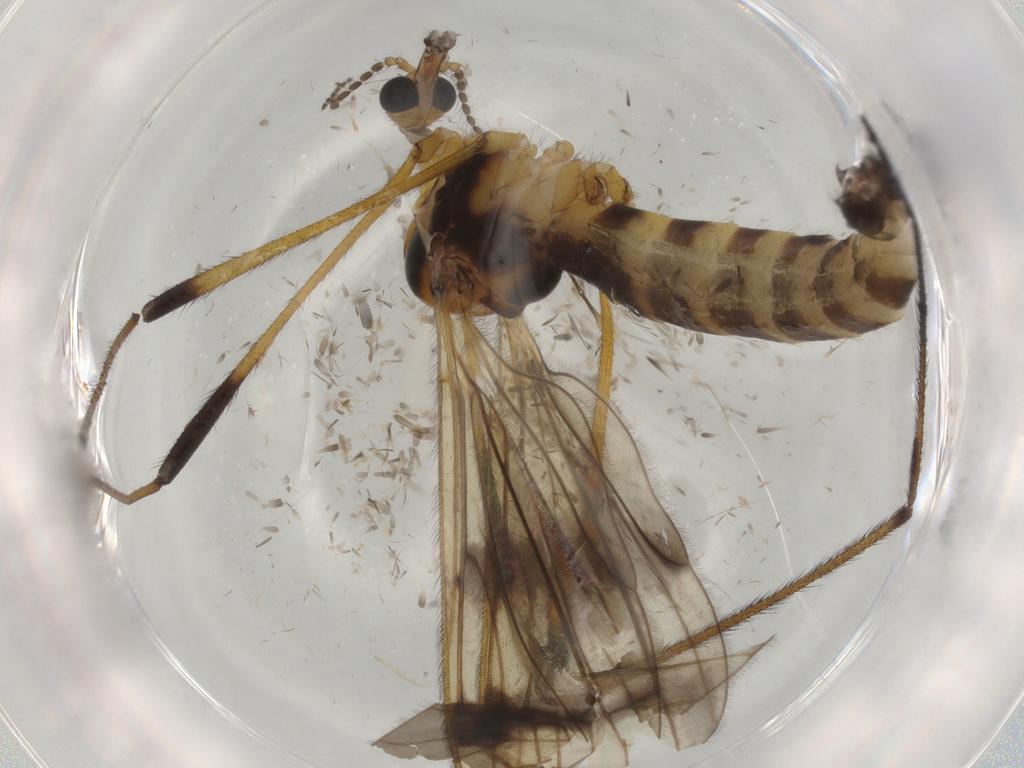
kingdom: Animalia
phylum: Arthropoda
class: Insecta
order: Diptera
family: Limoniidae
